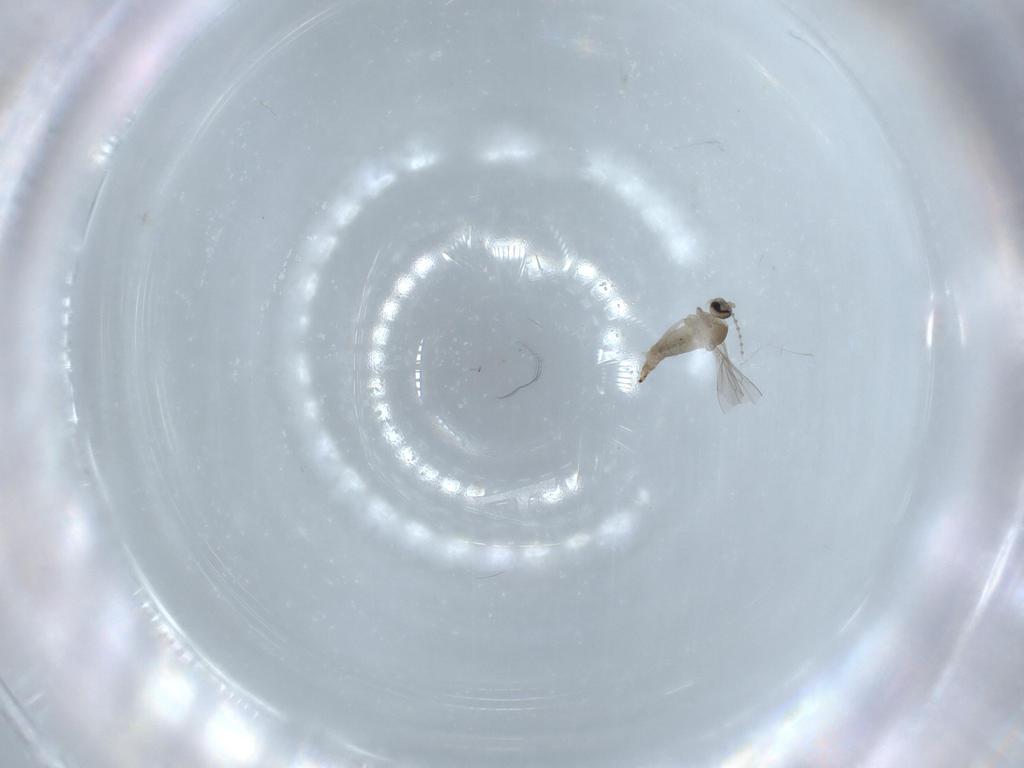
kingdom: Animalia
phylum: Arthropoda
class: Insecta
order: Diptera
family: Cecidomyiidae
